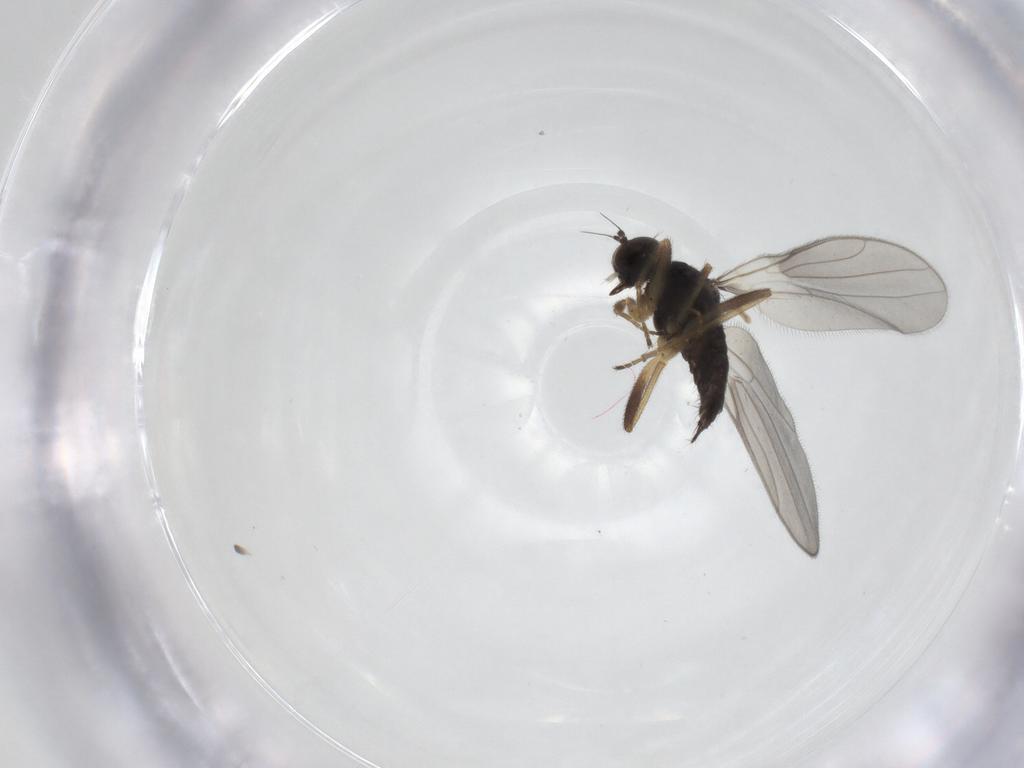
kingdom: Animalia
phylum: Arthropoda
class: Insecta
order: Diptera
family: Hybotidae
